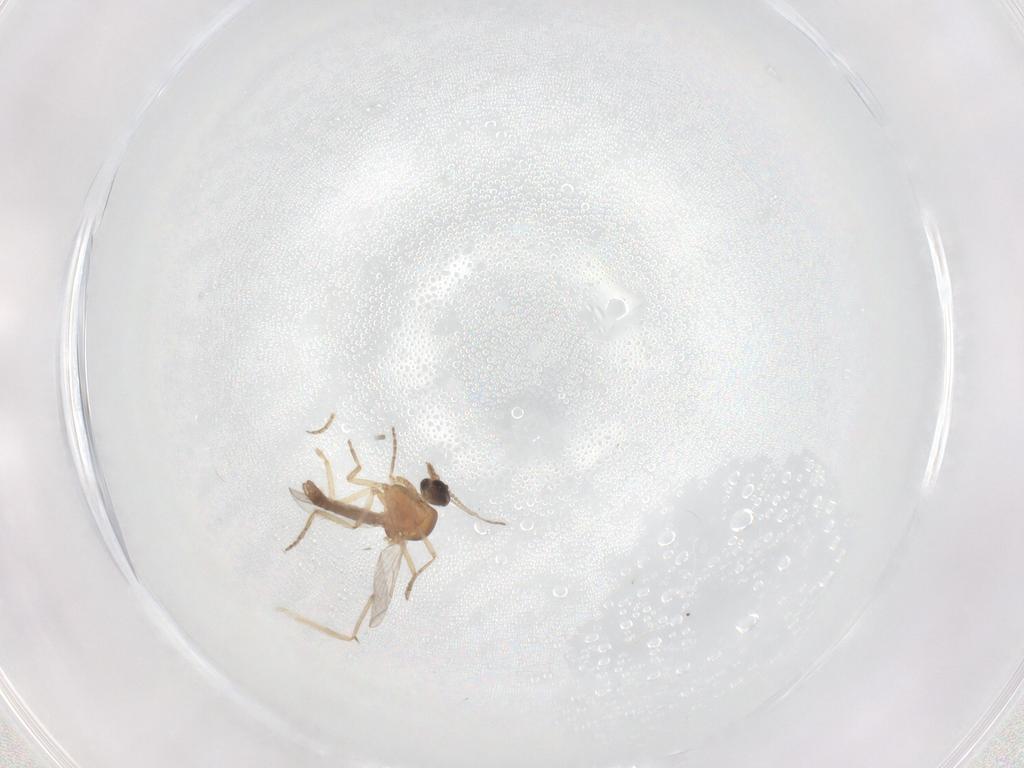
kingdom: Animalia
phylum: Arthropoda
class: Insecta
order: Diptera
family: Chironomidae
